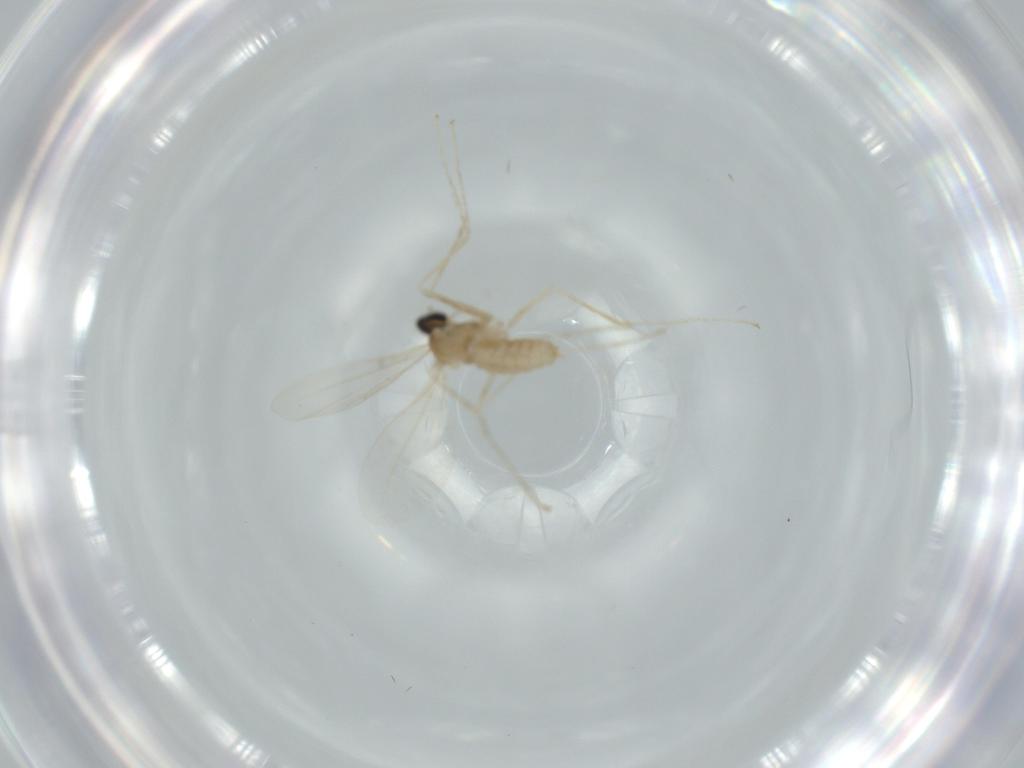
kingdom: Animalia
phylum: Arthropoda
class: Insecta
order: Diptera
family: Cecidomyiidae
